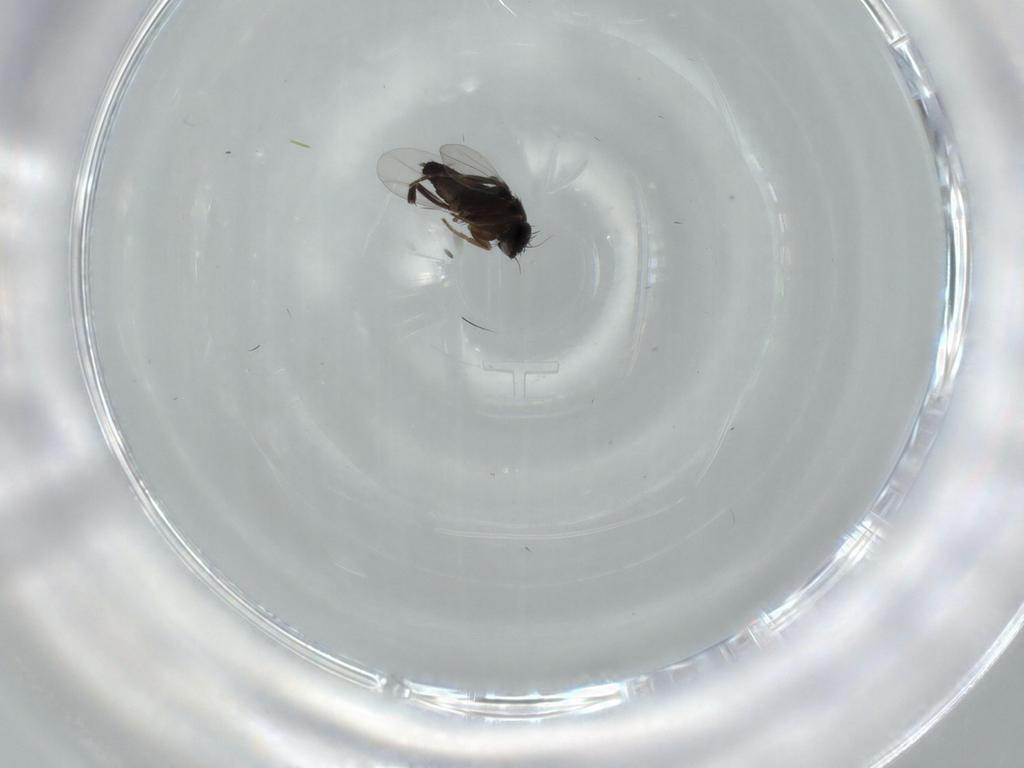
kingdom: Animalia
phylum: Arthropoda
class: Insecta
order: Diptera
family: Phoridae
